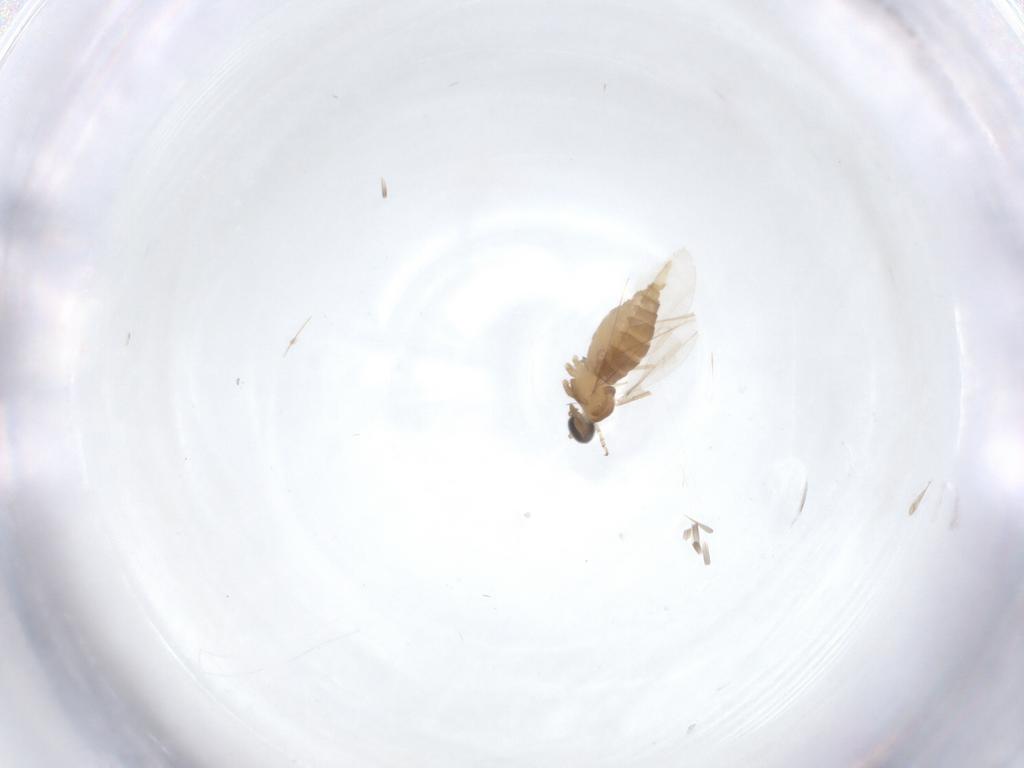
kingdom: Animalia
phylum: Arthropoda
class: Insecta
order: Diptera
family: Cecidomyiidae
